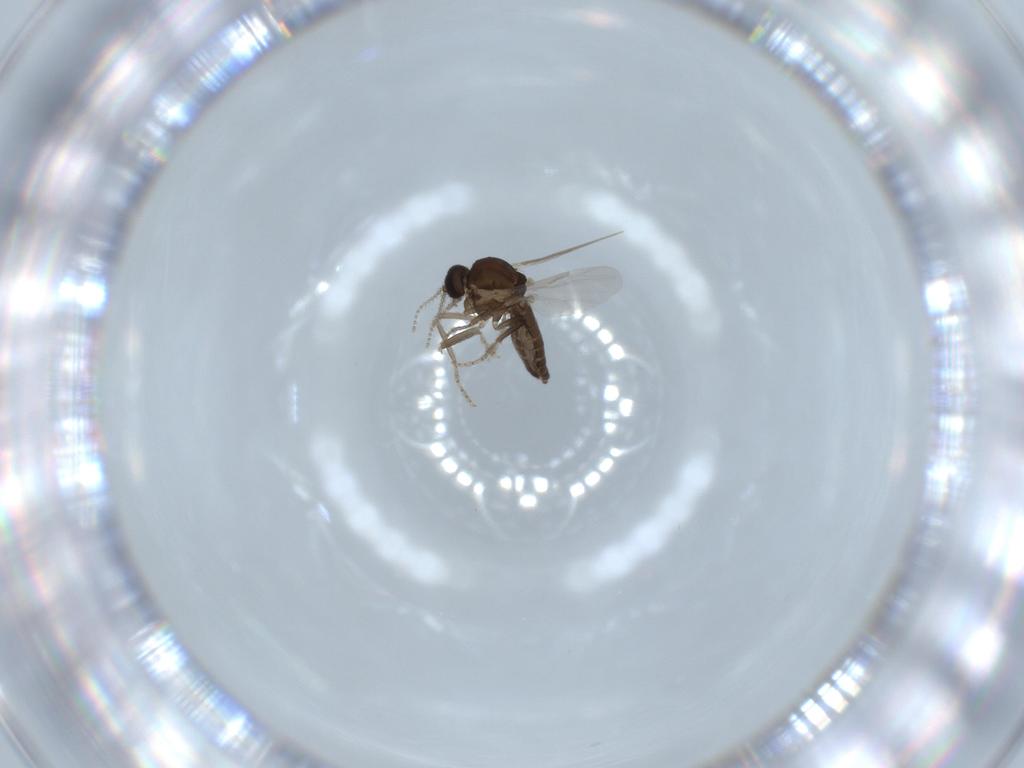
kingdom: Animalia
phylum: Arthropoda
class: Insecta
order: Diptera
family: Ceratopogonidae
